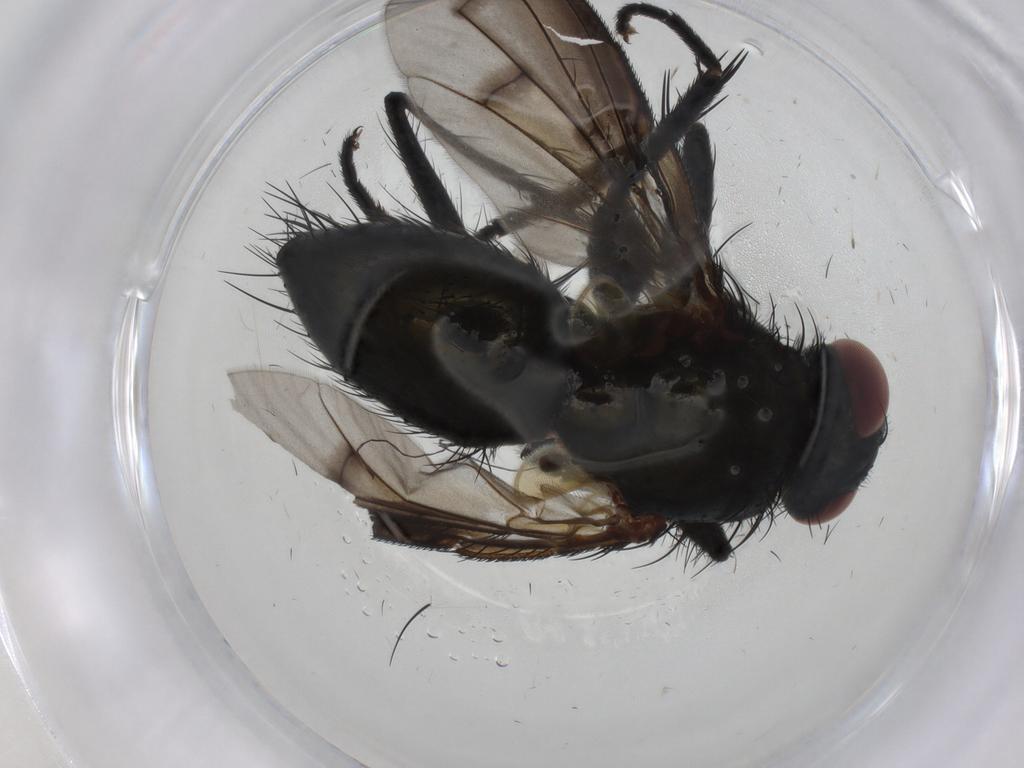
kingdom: Animalia
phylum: Arthropoda
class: Insecta
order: Diptera
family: Tachinidae
